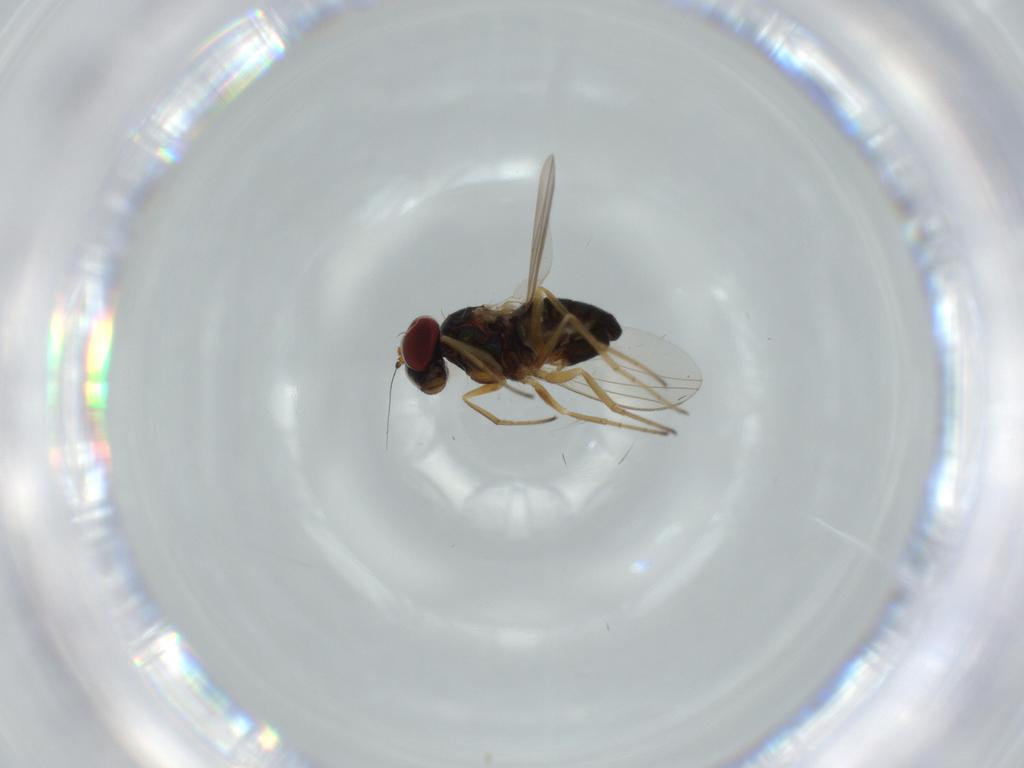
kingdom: Animalia
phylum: Arthropoda
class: Insecta
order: Diptera
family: Dolichopodidae
